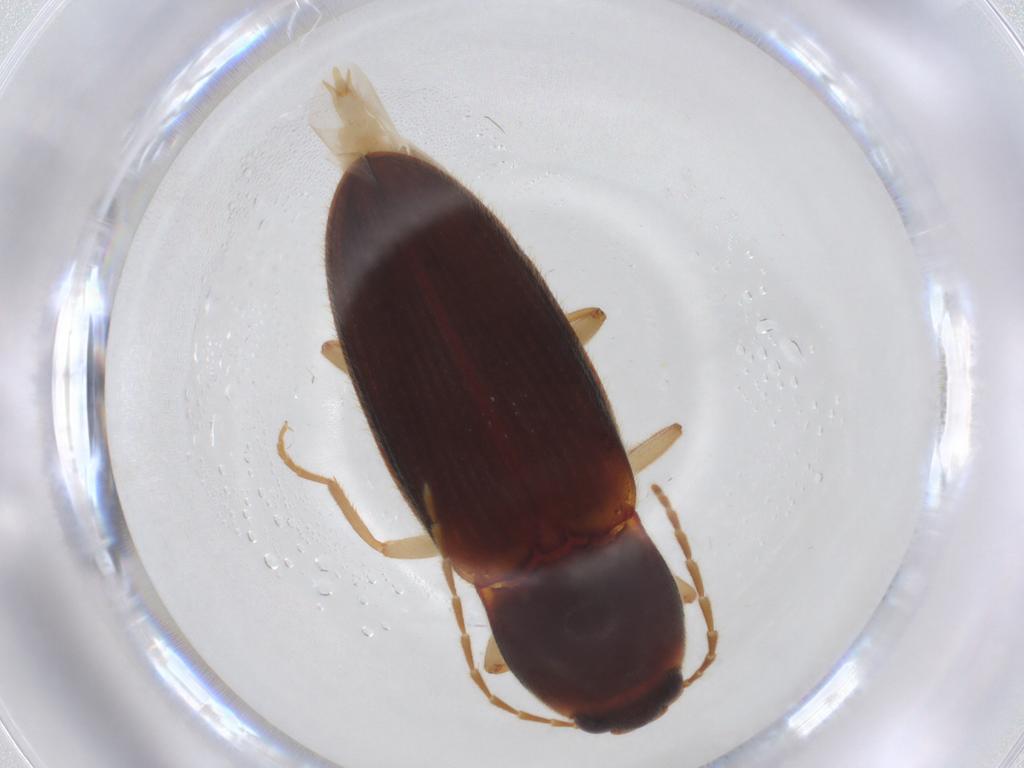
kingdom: Animalia
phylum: Arthropoda
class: Insecta
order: Coleoptera
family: Elateridae
